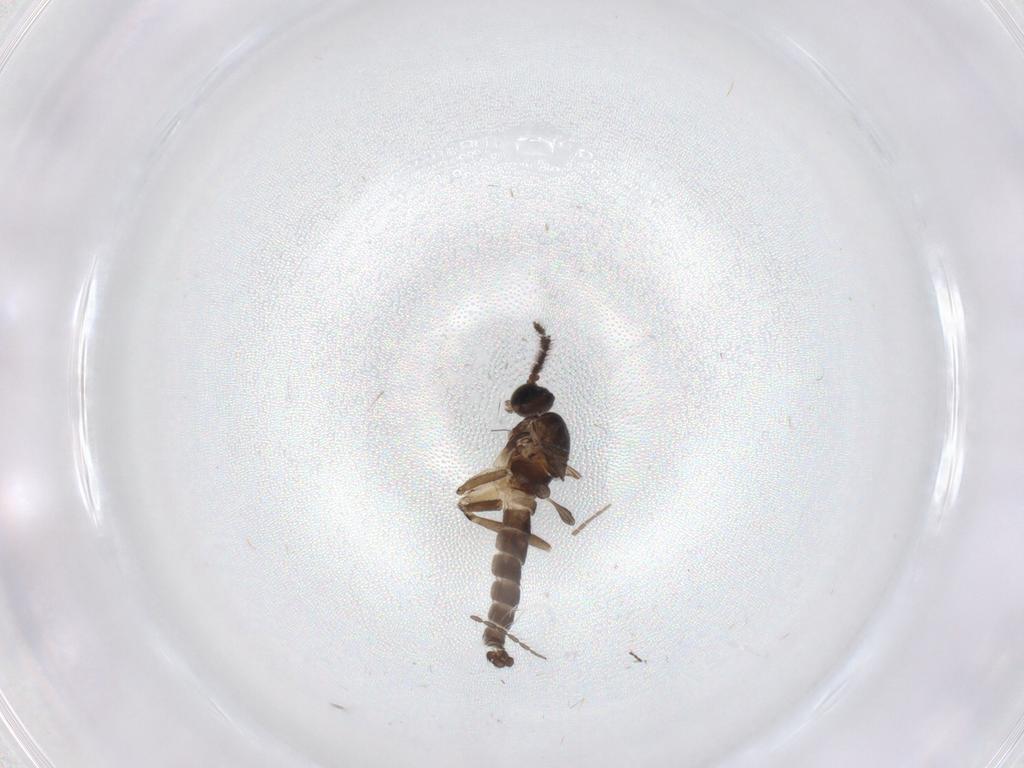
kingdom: Animalia
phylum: Arthropoda
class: Insecta
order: Diptera
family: Sciaridae
